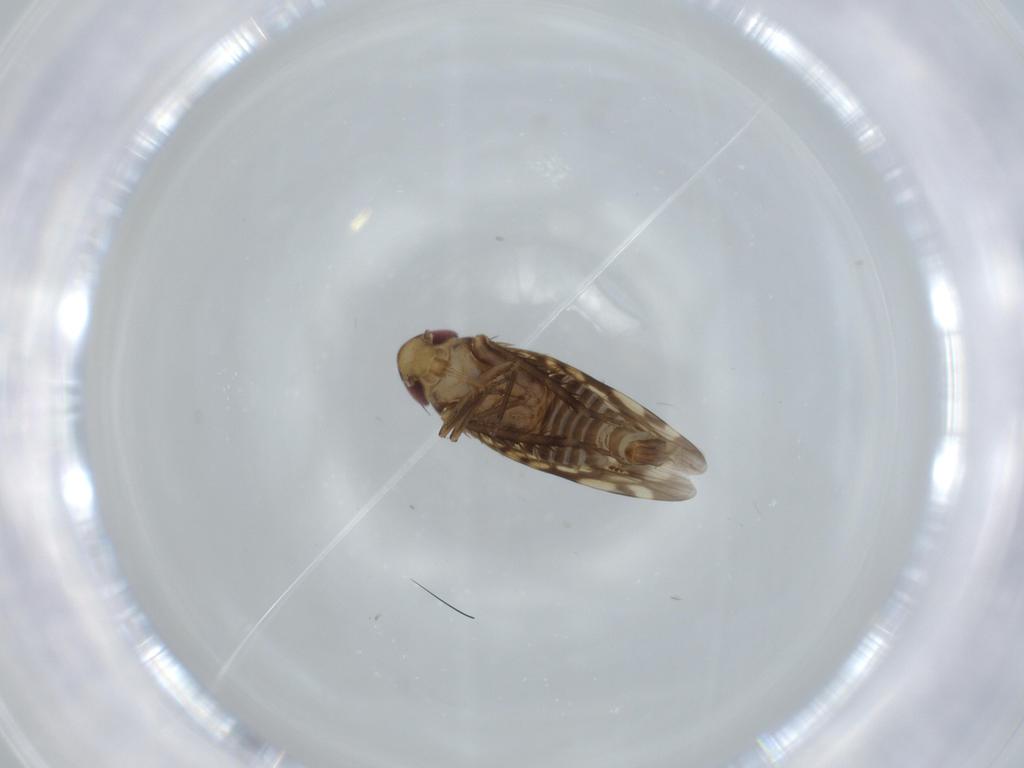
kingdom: Animalia
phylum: Arthropoda
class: Insecta
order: Hemiptera
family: Cicadellidae
